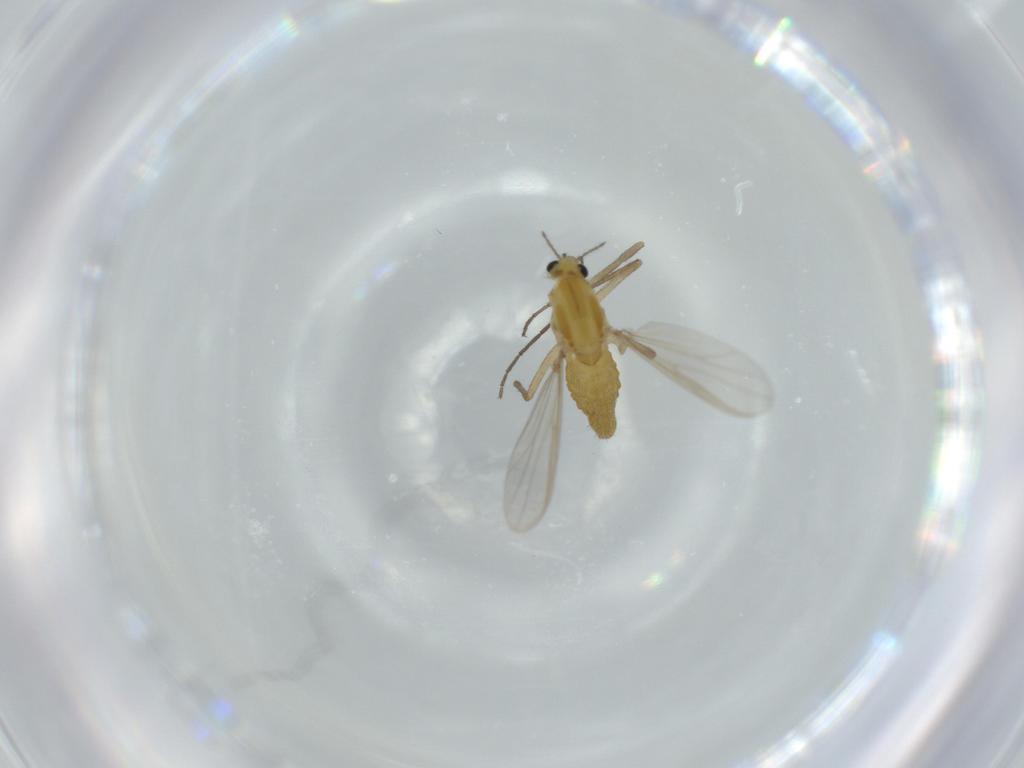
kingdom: Animalia
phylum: Arthropoda
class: Insecta
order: Diptera
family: Chironomidae
